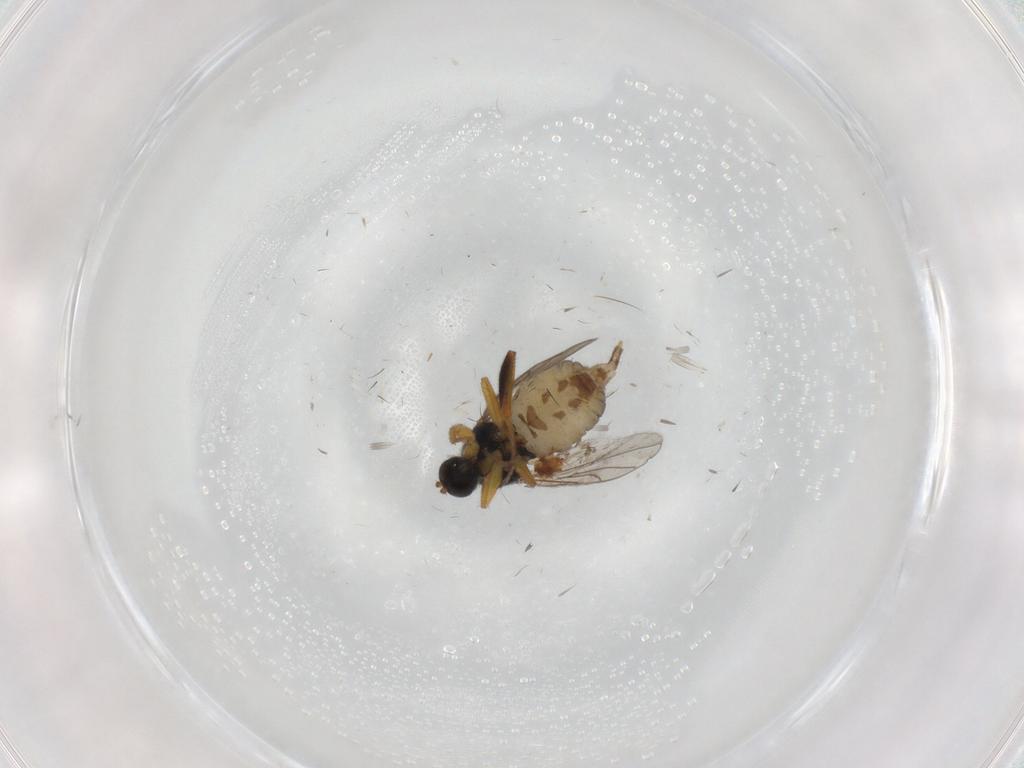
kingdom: Animalia
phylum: Arthropoda
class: Insecta
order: Diptera
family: Hybotidae
